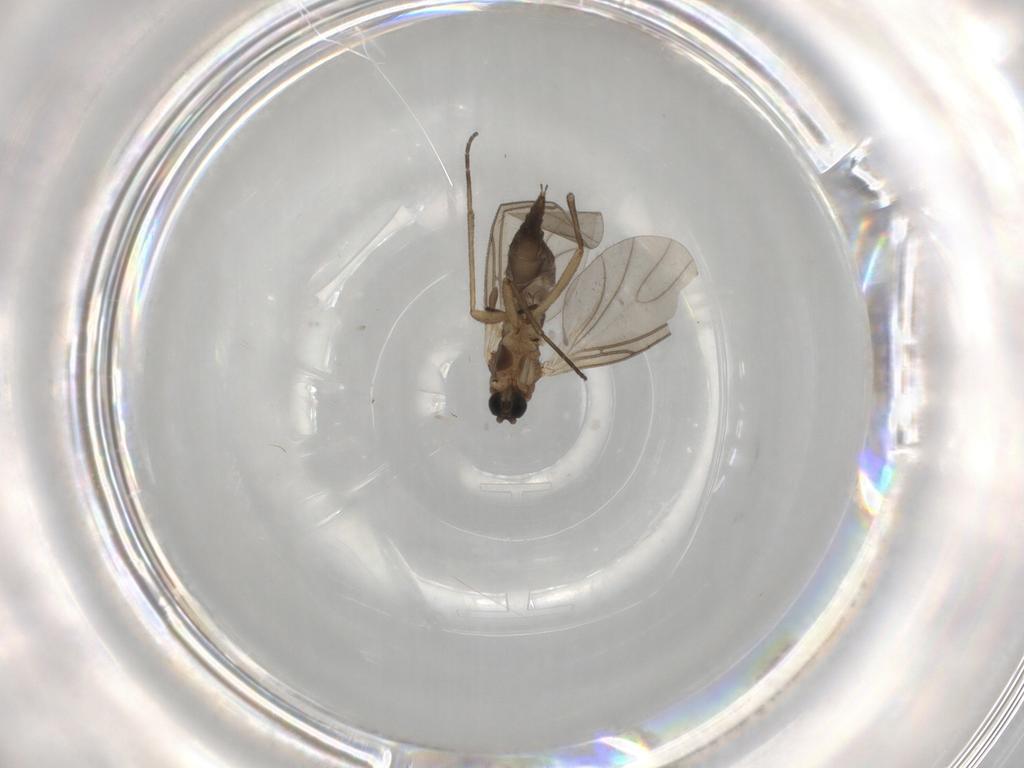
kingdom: Animalia
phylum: Arthropoda
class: Insecta
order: Diptera
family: Sciaridae
